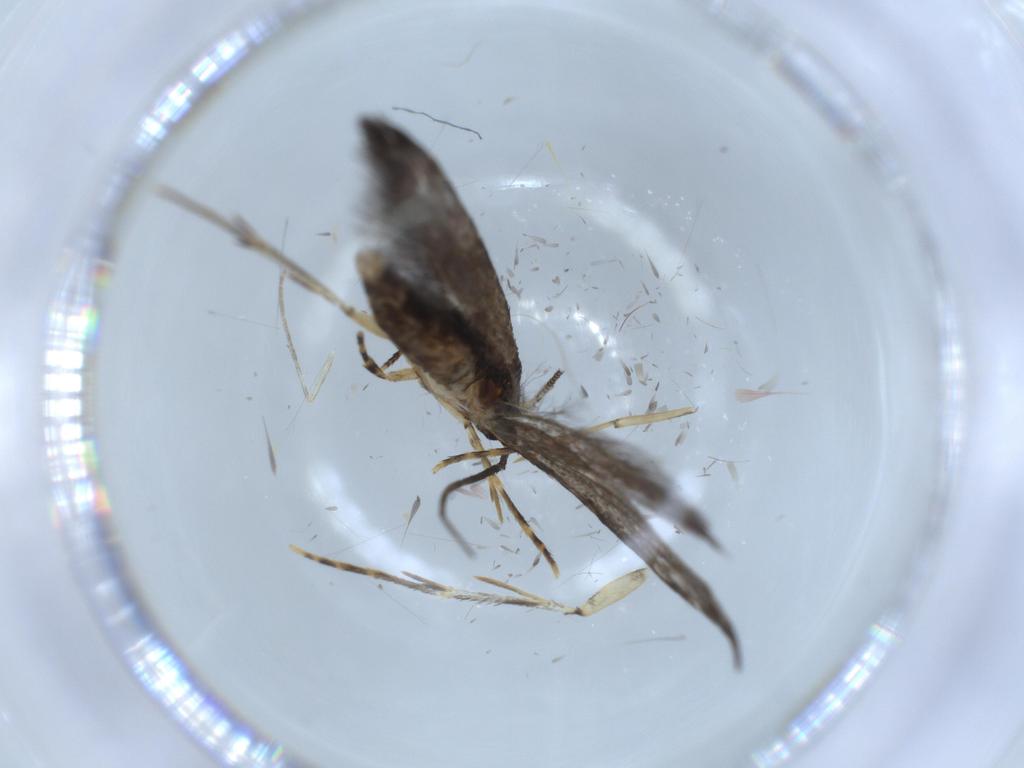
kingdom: Animalia
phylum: Arthropoda
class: Insecta
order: Lepidoptera
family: Tineidae
